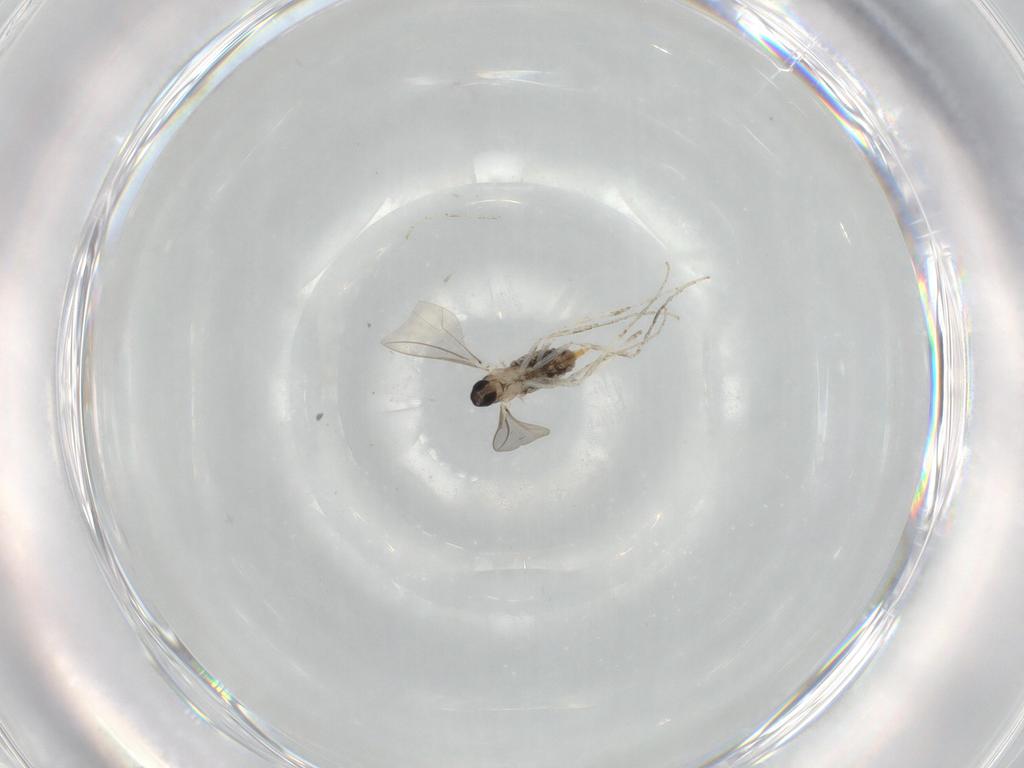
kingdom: Animalia
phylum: Arthropoda
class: Insecta
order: Diptera
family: Cecidomyiidae
